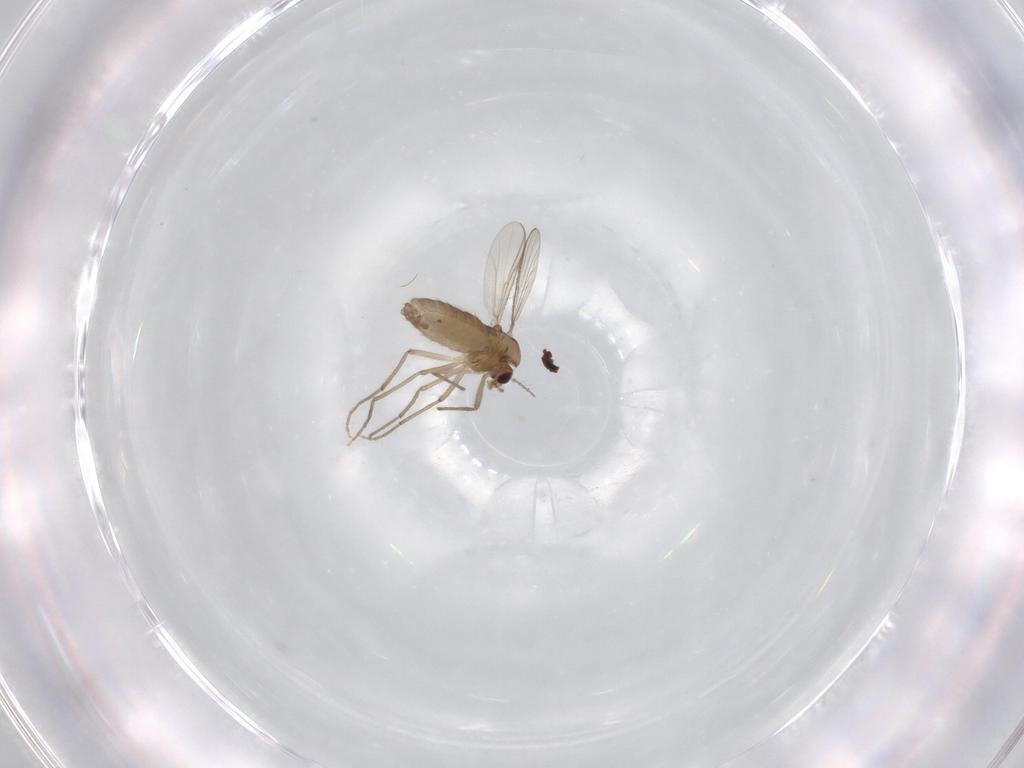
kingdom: Animalia
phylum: Arthropoda
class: Insecta
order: Diptera
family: Chironomidae
